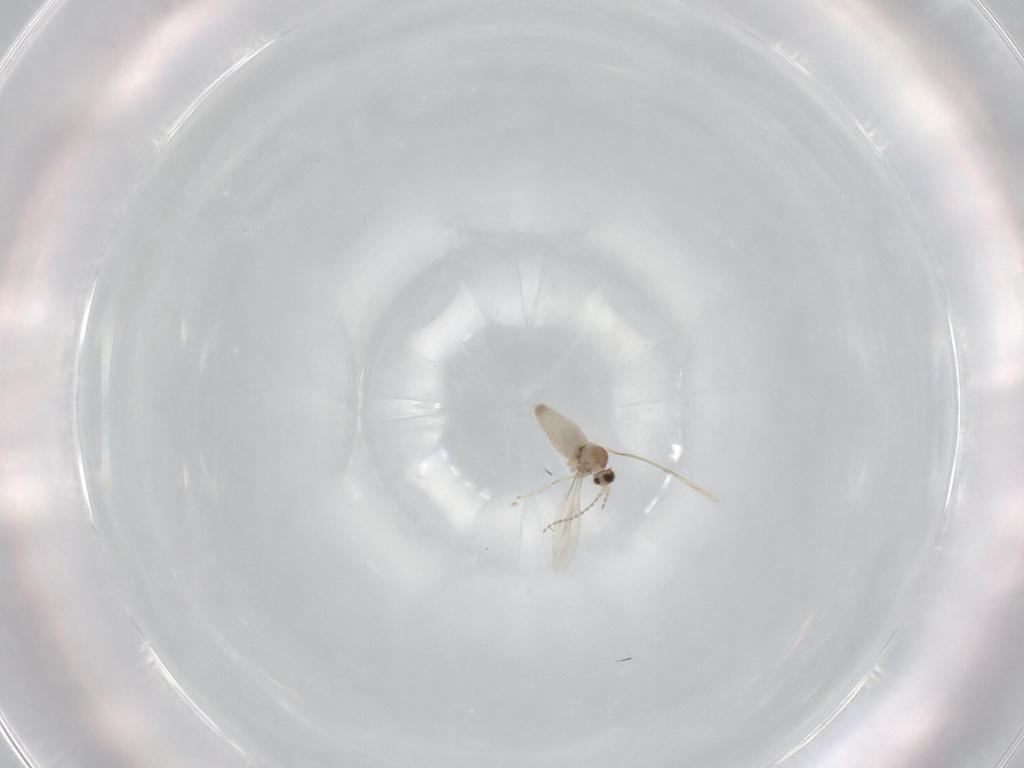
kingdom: Animalia
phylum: Arthropoda
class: Insecta
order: Diptera
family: Cecidomyiidae
